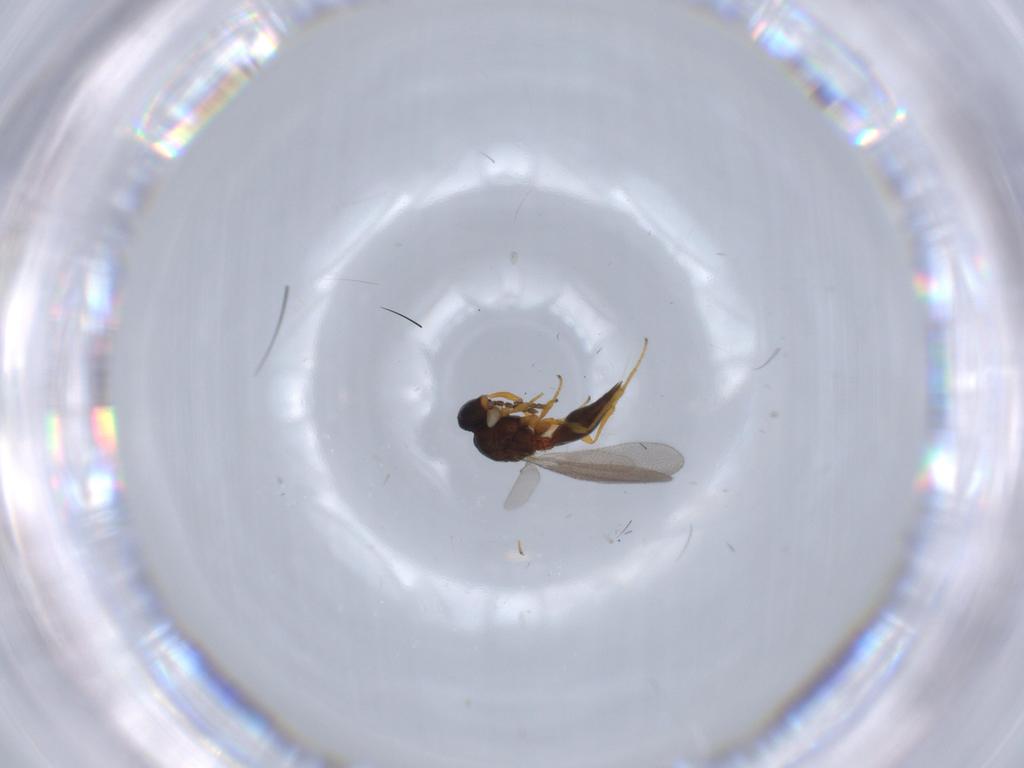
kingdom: Animalia
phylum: Arthropoda
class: Insecta
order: Diptera
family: Mythicomyiidae
